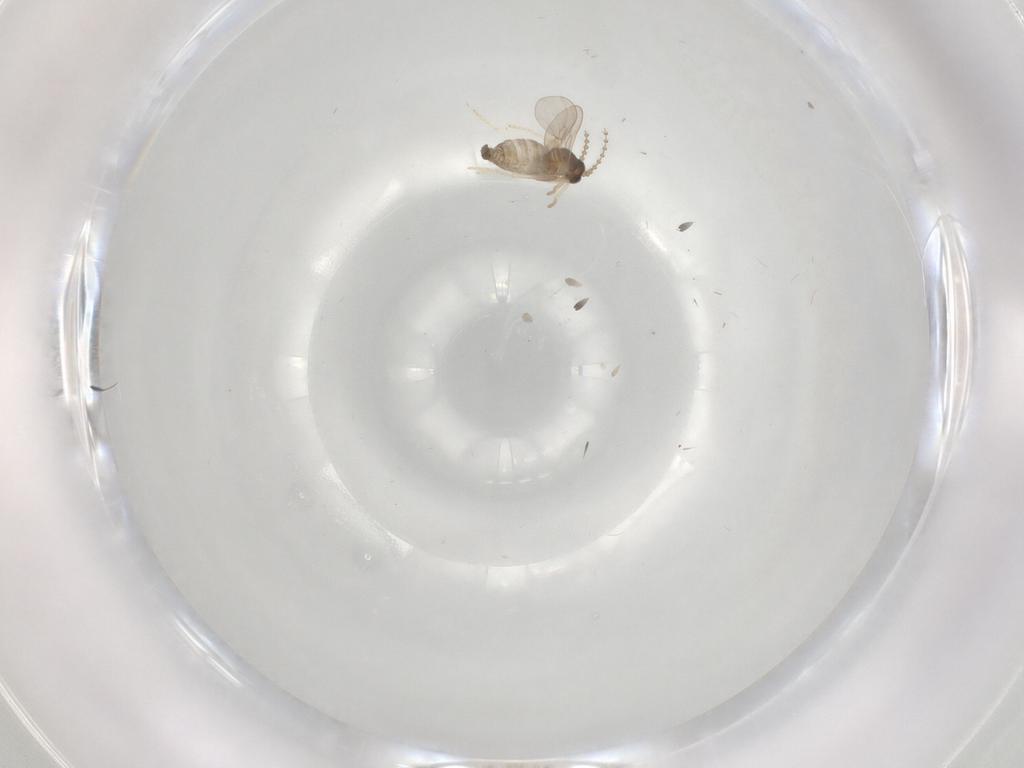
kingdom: Animalia
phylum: Arthropoda
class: Insecta
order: Diptera
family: Cecidomyiidae
